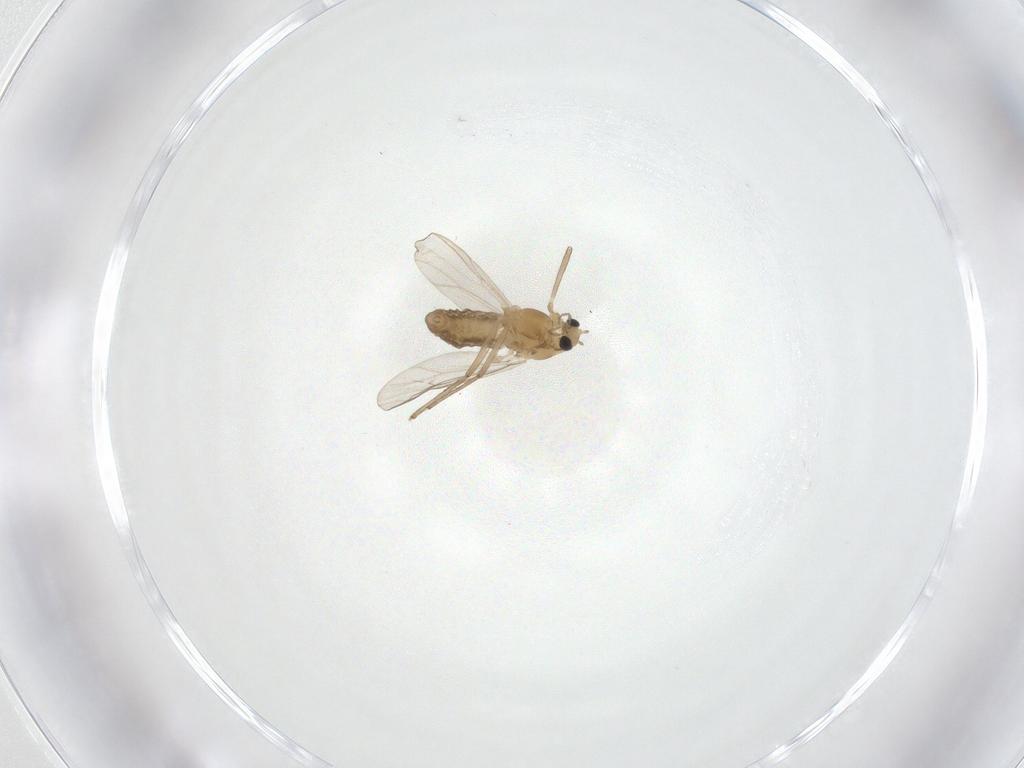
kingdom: Animalia
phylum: Arthropoda
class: Insecta
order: Diptera
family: Chironomidae
